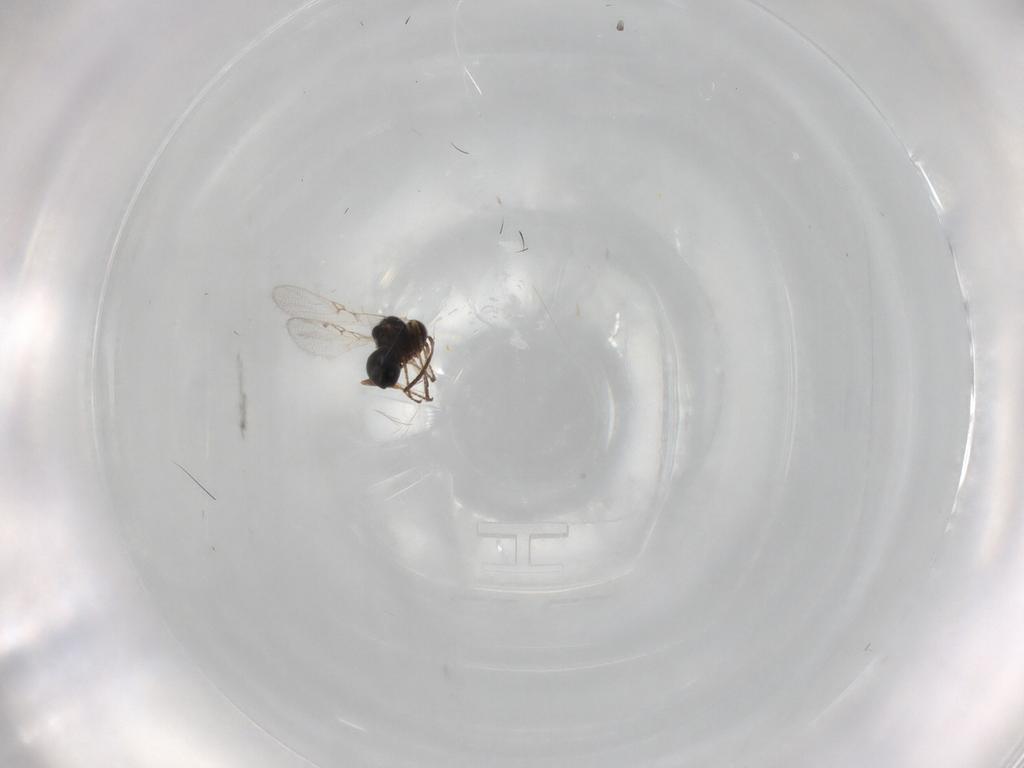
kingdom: Animalia
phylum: Arthropoda
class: Insecta
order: Hymenoptera
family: Figitidae
